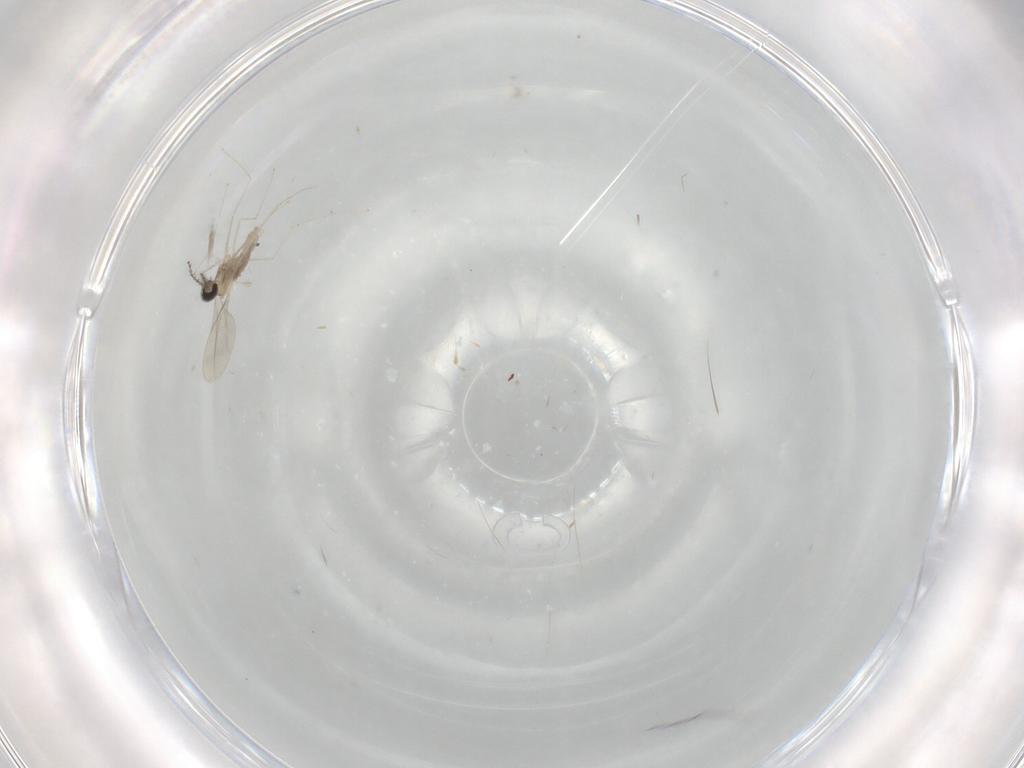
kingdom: Animalia
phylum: Arthropoda
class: Insecta
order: Diptera
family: Cecidomyiidae
